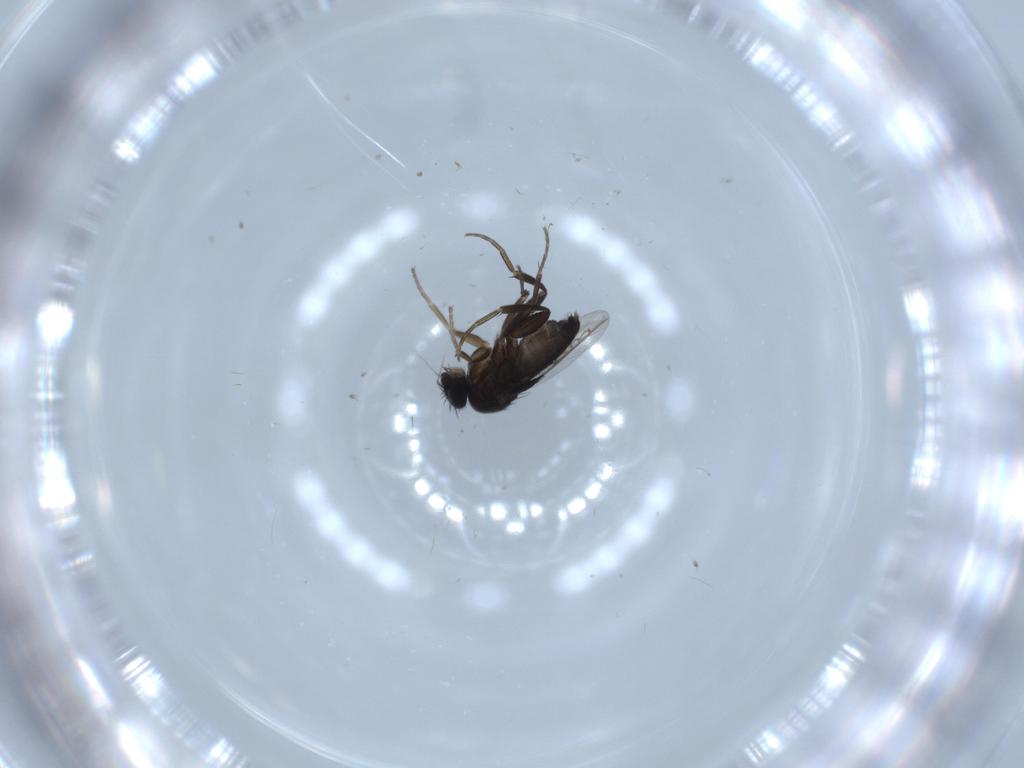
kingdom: Animalia
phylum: Arthropoda
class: Insecta
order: Diptera
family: Phoridae
